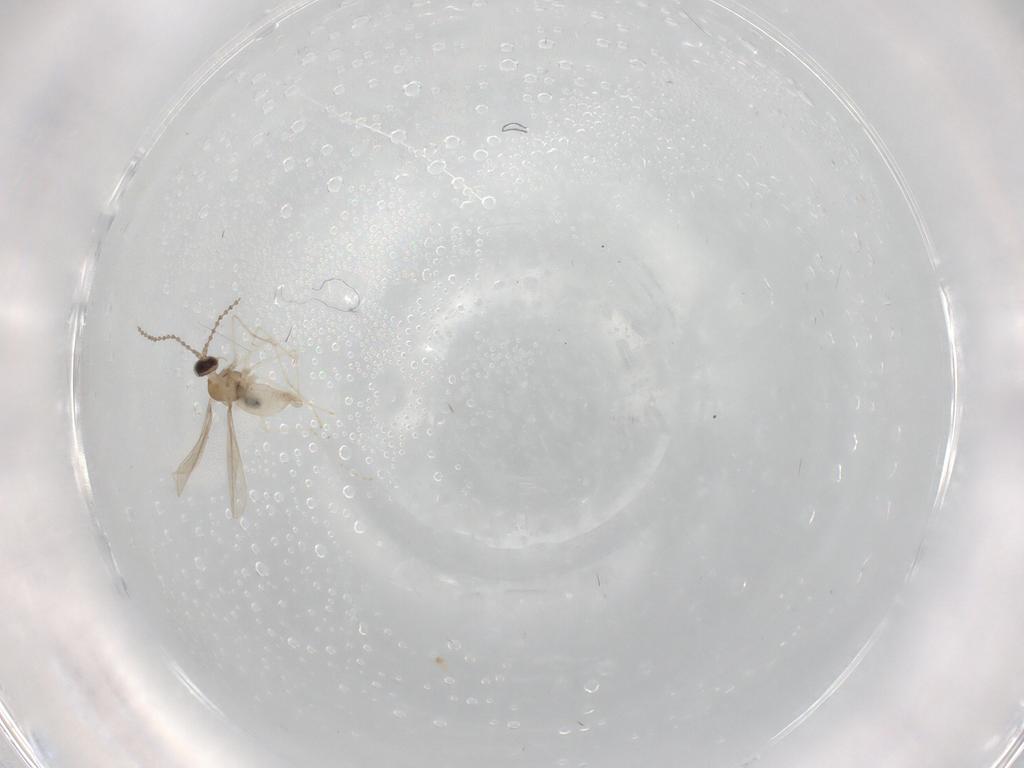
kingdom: Animalia
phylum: Arthropoda
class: Insecta
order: Diptera
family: Cecidomyiidae
